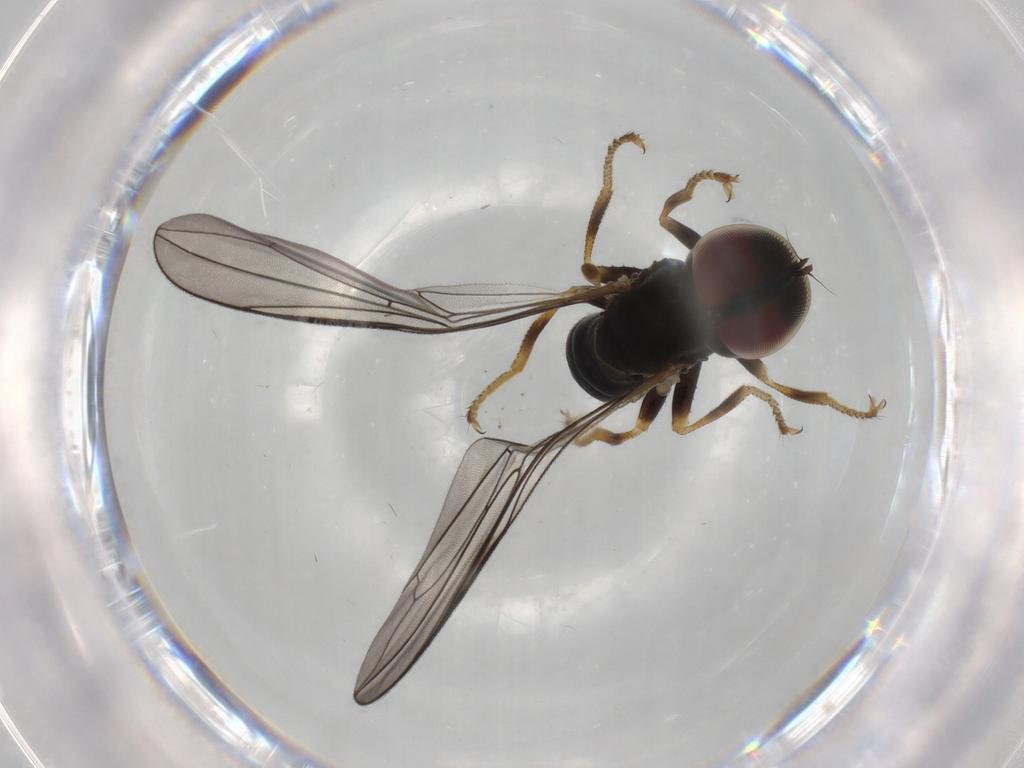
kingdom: Animalia
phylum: Arthropoda
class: Insecta
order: Diptera
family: Pipunculidae
